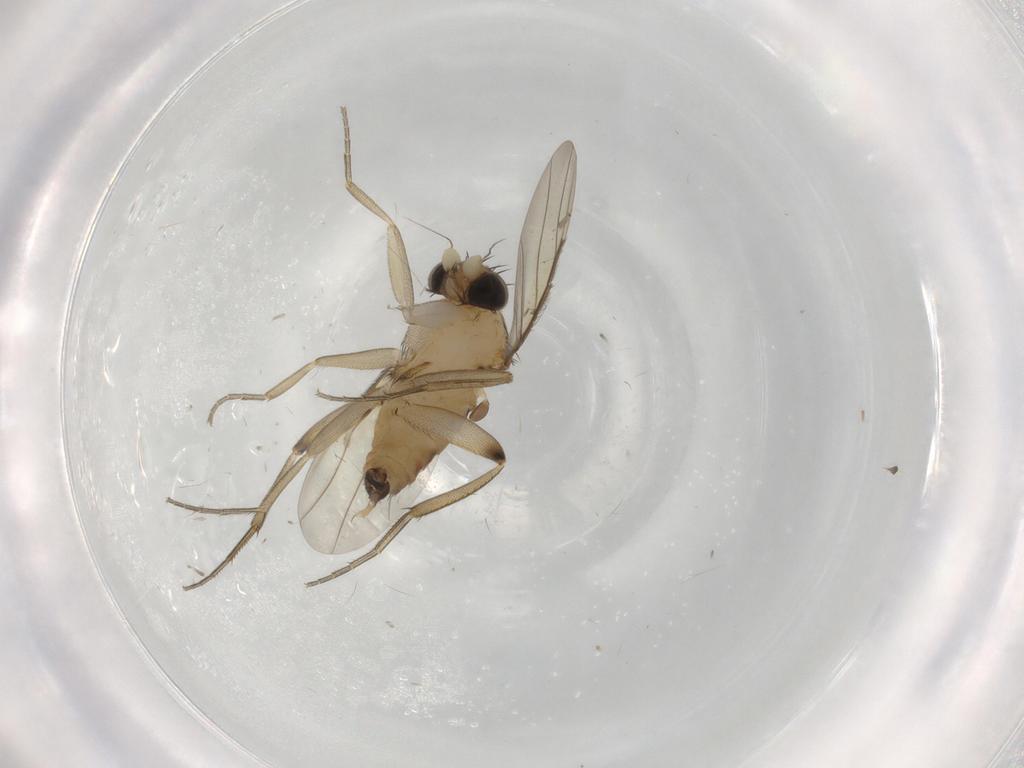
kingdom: Animalia
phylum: Arthropoda
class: Insecta
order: Diptera
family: Phoridae
